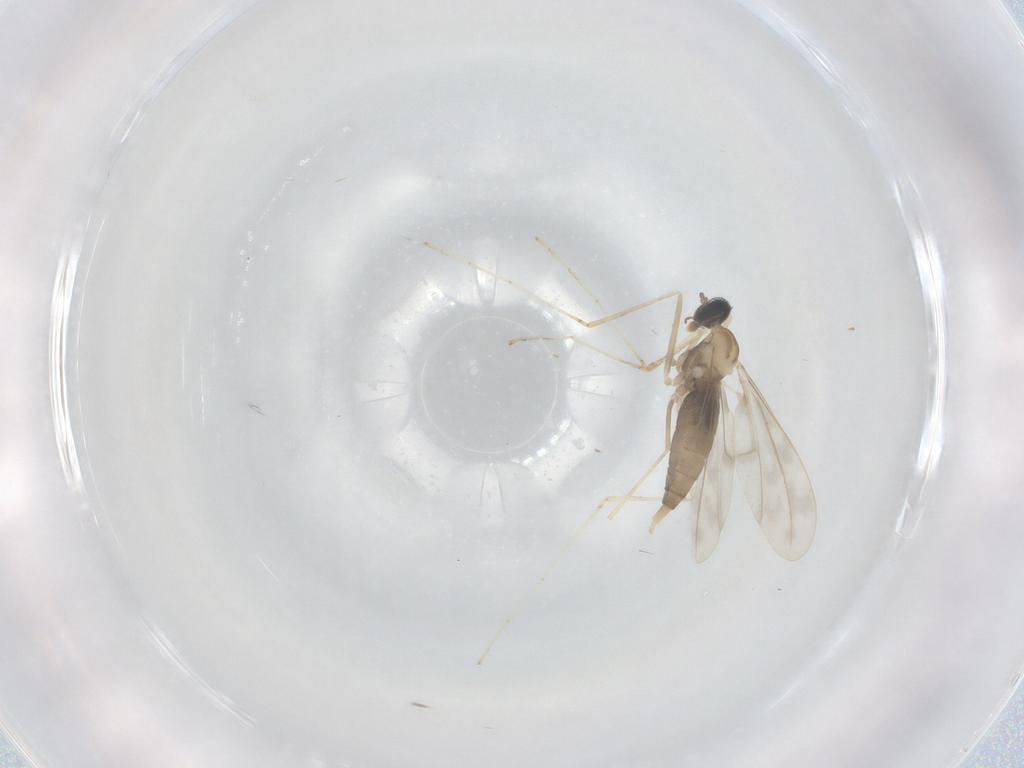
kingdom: Animalia
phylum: Arthropoda
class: Insecta
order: Diptera
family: Cecidomyiidae
